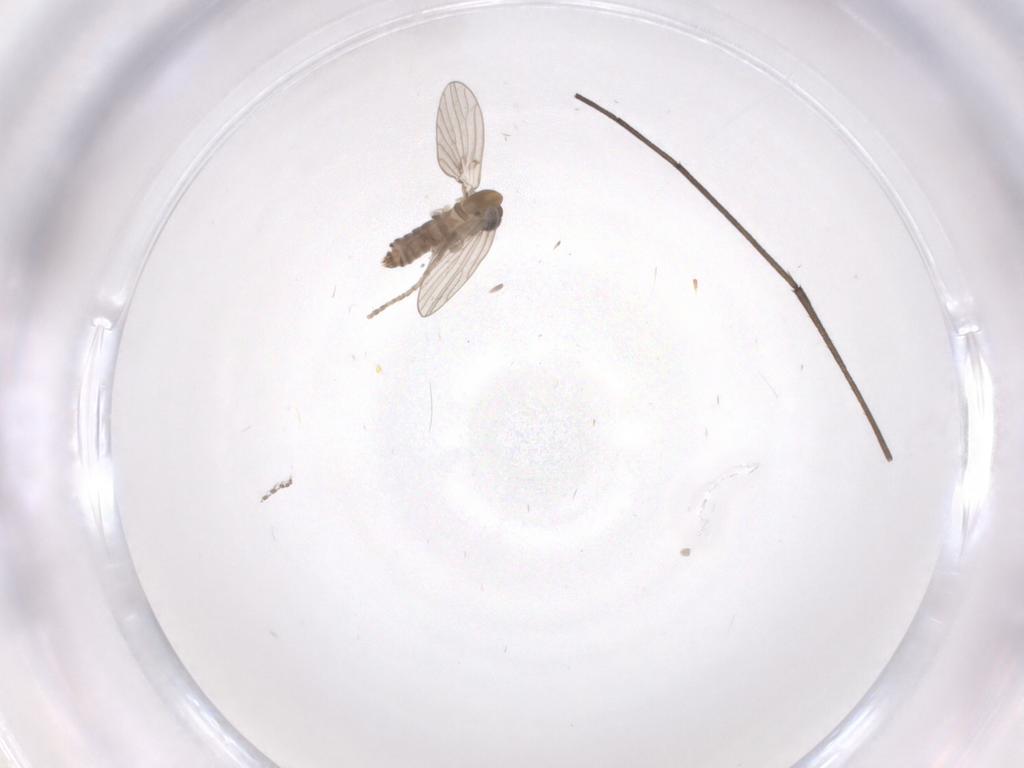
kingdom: Animalia
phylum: Arthropoda
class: Insecta
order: Diptera
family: Psychodidae
